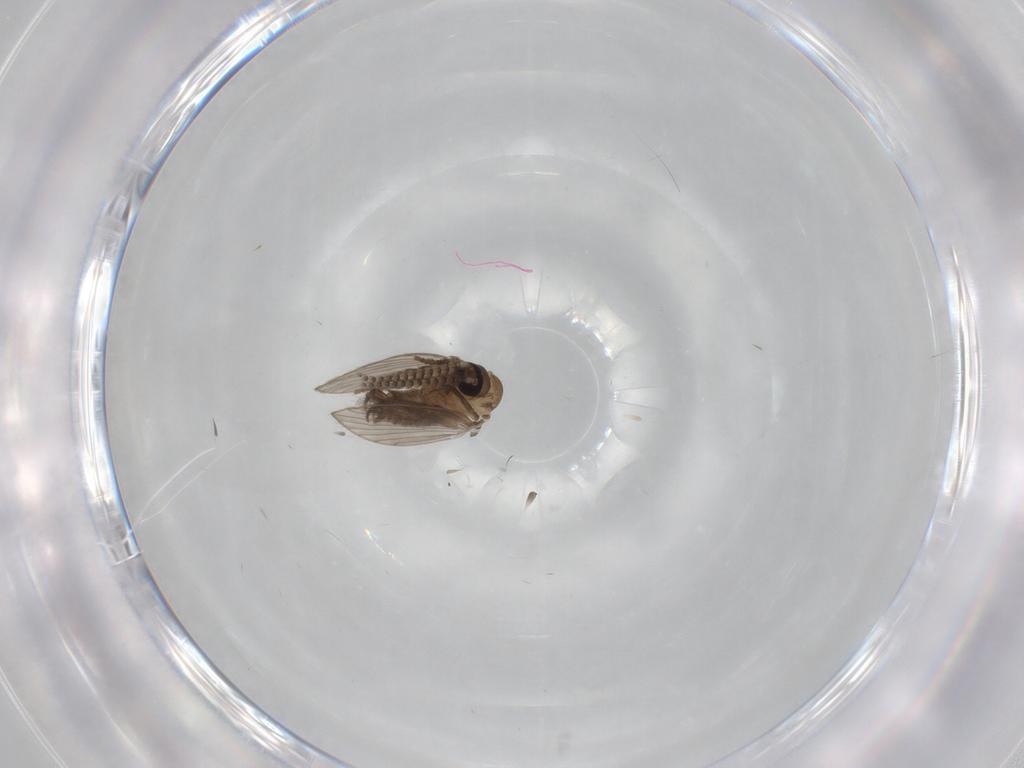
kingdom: Animalia
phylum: Arthropoda
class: Insecta
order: Diptera
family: Psychodidae
